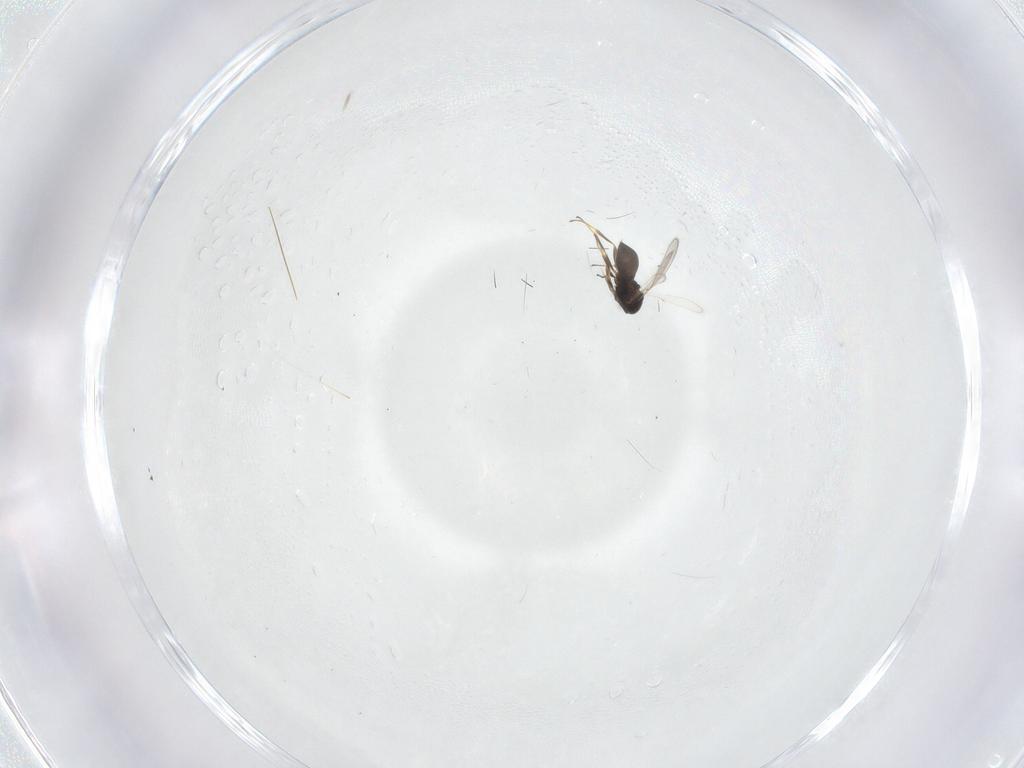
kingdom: Animalia
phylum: Arthropoda
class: Insecta
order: Hymenoptera
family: Scelionidae
